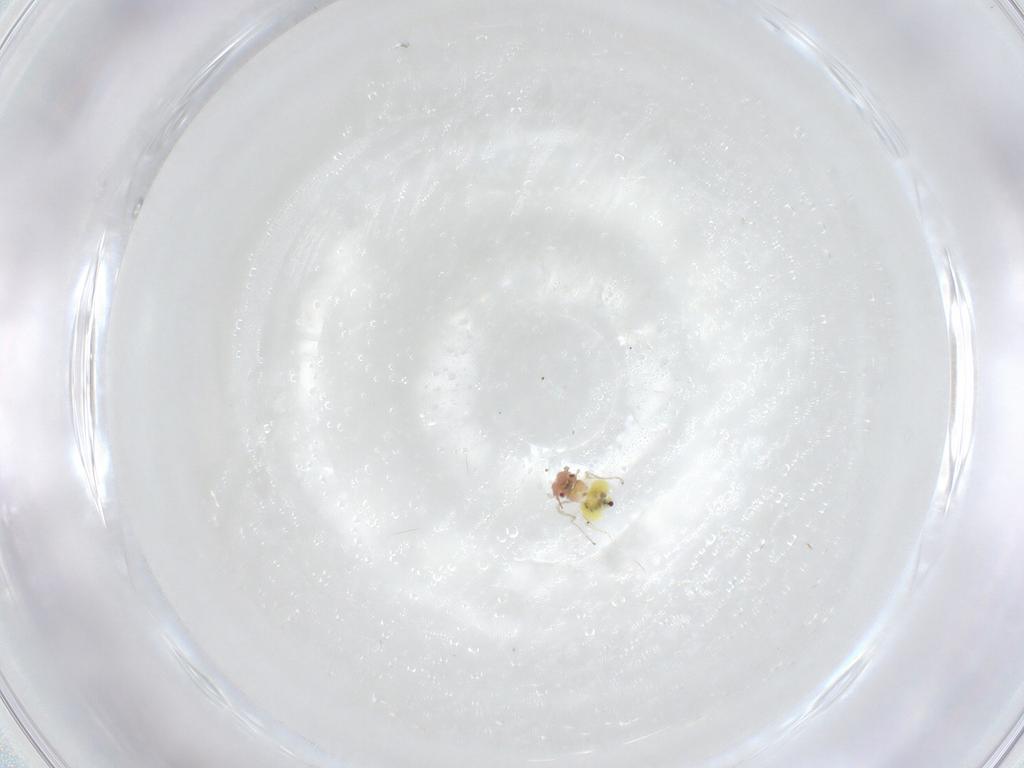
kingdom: Animalia
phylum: Arthropoda
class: Insecta
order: Psocodea
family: Caeciliusidae
